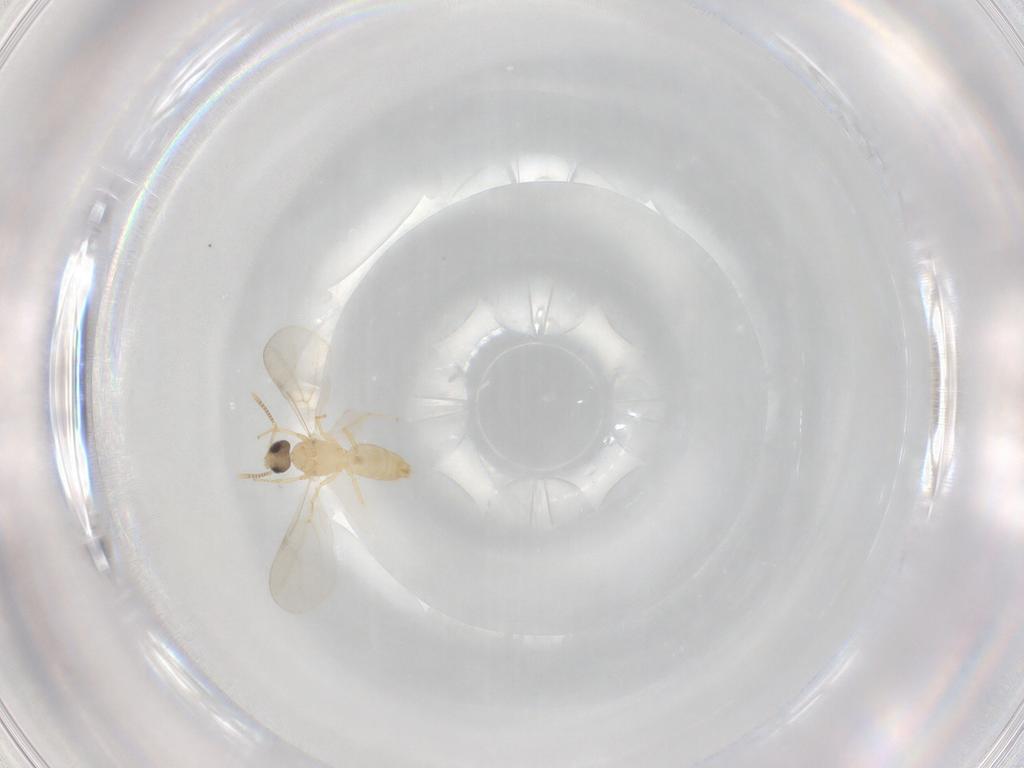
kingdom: Animalia
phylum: Arthropoda
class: Insecta
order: Hymenoptera
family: Formicidae
